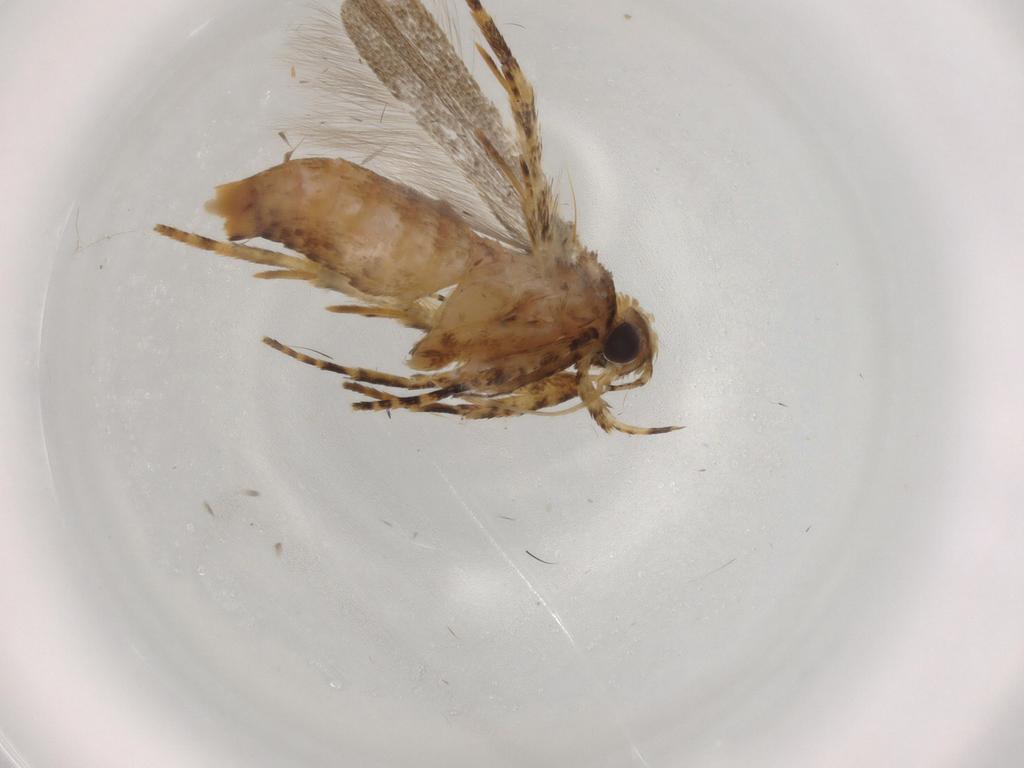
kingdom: Animalia
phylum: Arthropoda
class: Insecta
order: Lepidoptera
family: Gelechiidae
